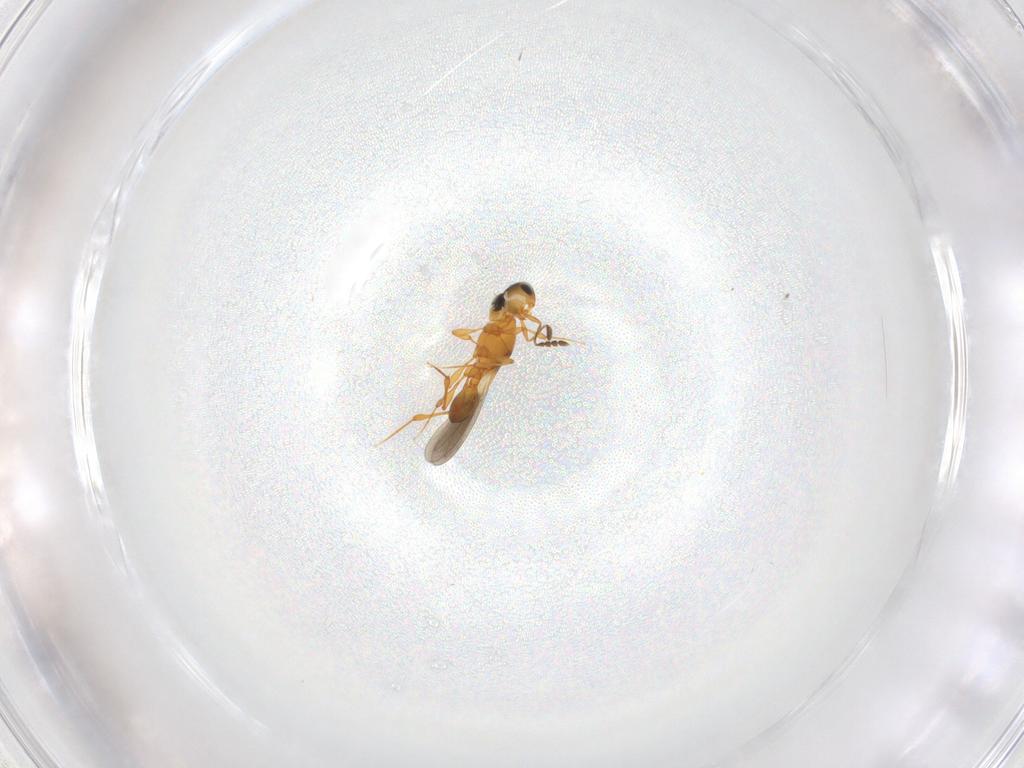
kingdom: Animalia
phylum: Arthropoda
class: Insecta
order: Hymenoptera
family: Platygastridae
